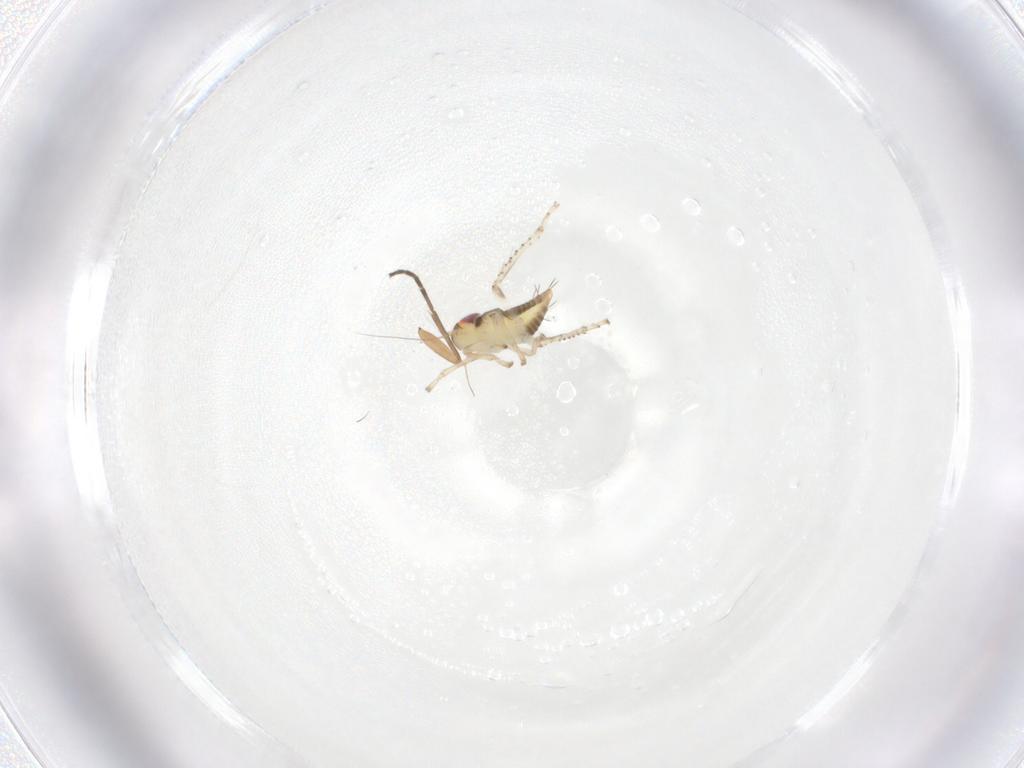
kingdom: Animalia
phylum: Arthropoda
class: Insecta
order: Hemiptera
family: Cicadellidae
